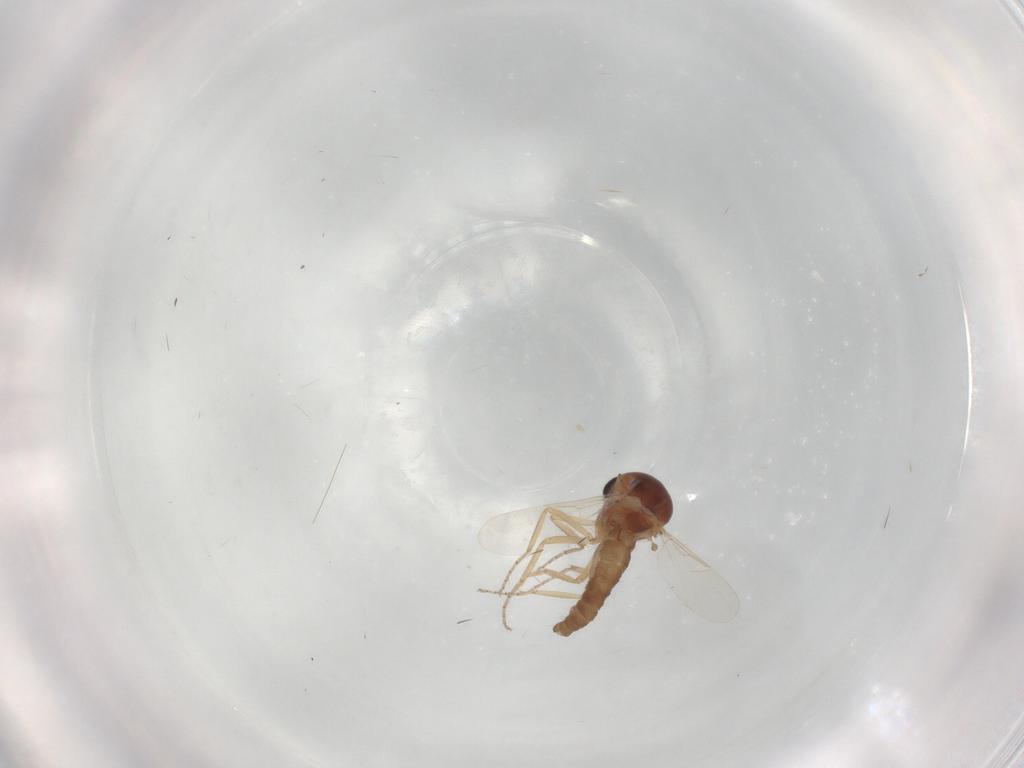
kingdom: Animalia
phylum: Arthropoda
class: Insecta
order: Diptera
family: Ceratopogonidae
